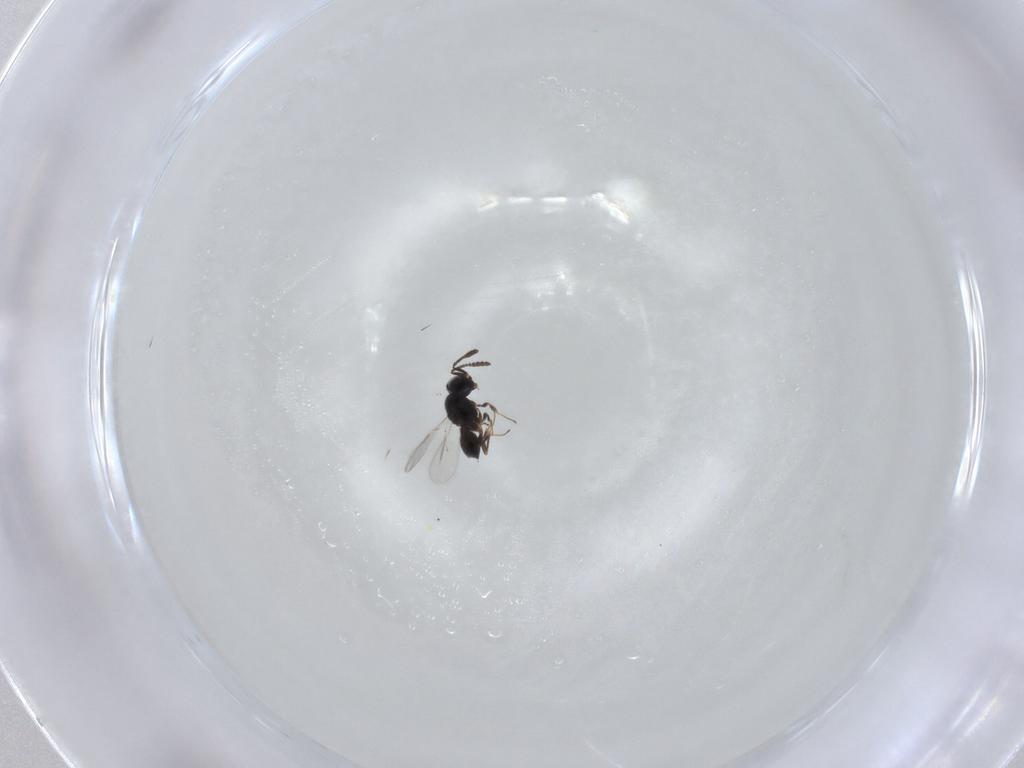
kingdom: Animalia
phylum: Arthropoda
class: Insecta
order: Hymenoptera
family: Scelionidae
